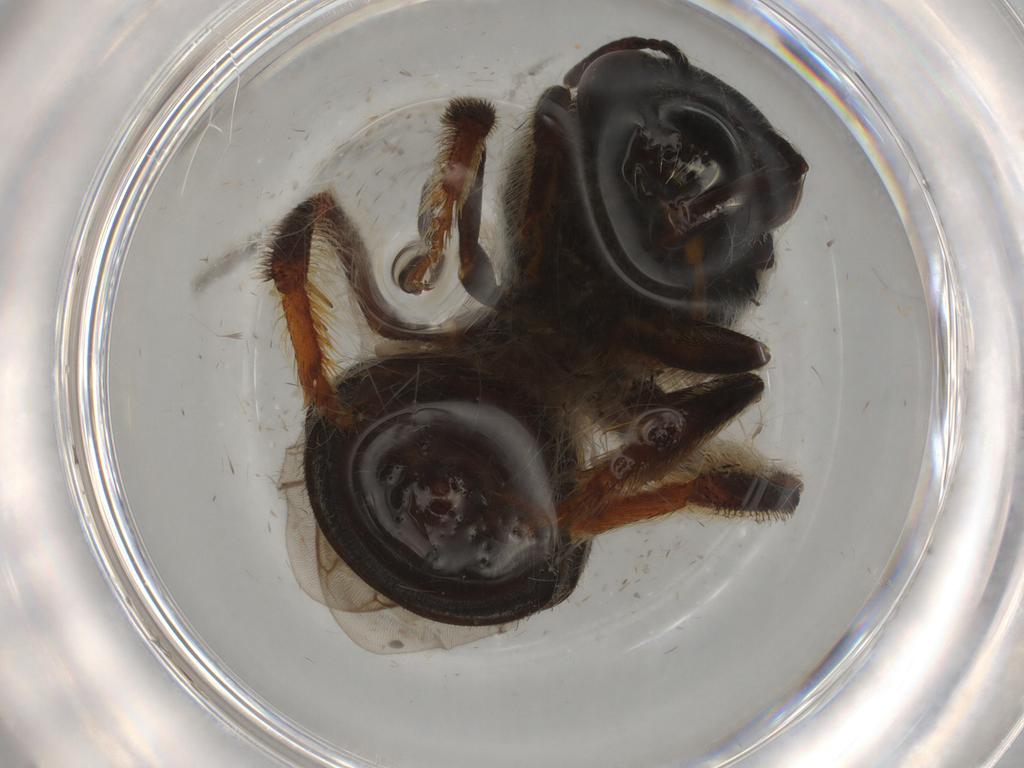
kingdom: Animalia
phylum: Arthropoda
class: Insecta
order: Hymenoptera
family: Halictidae
